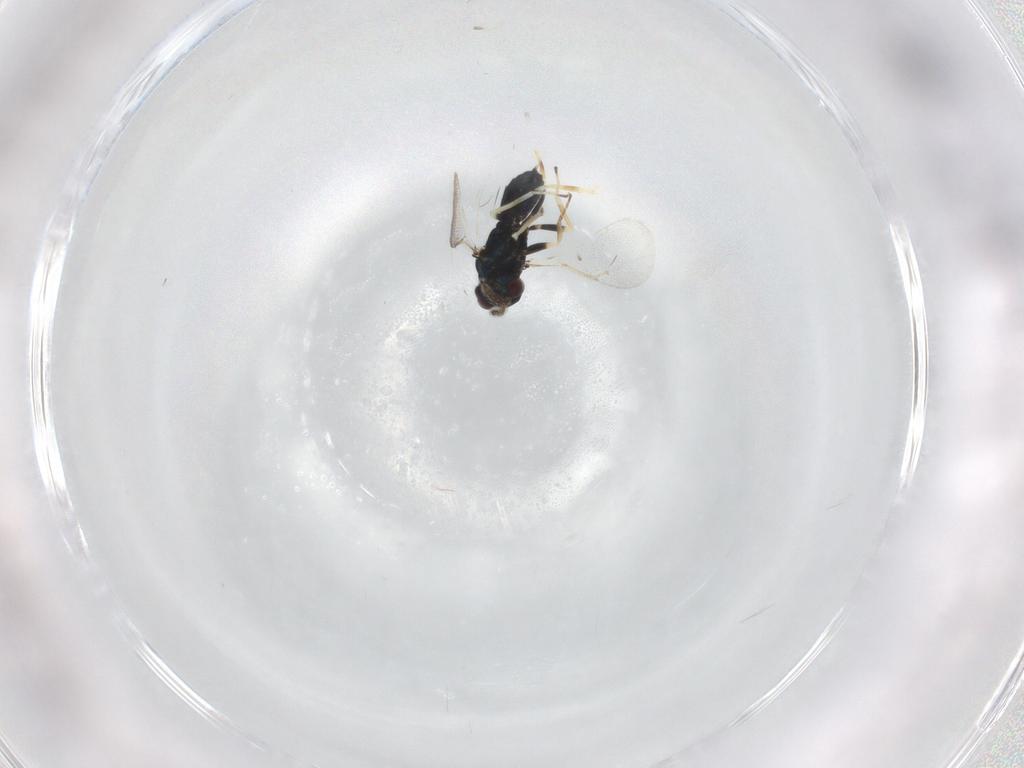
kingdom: Animalia
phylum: Arthropoda
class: Insecta
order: Hymenoptera
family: Eulophidae
